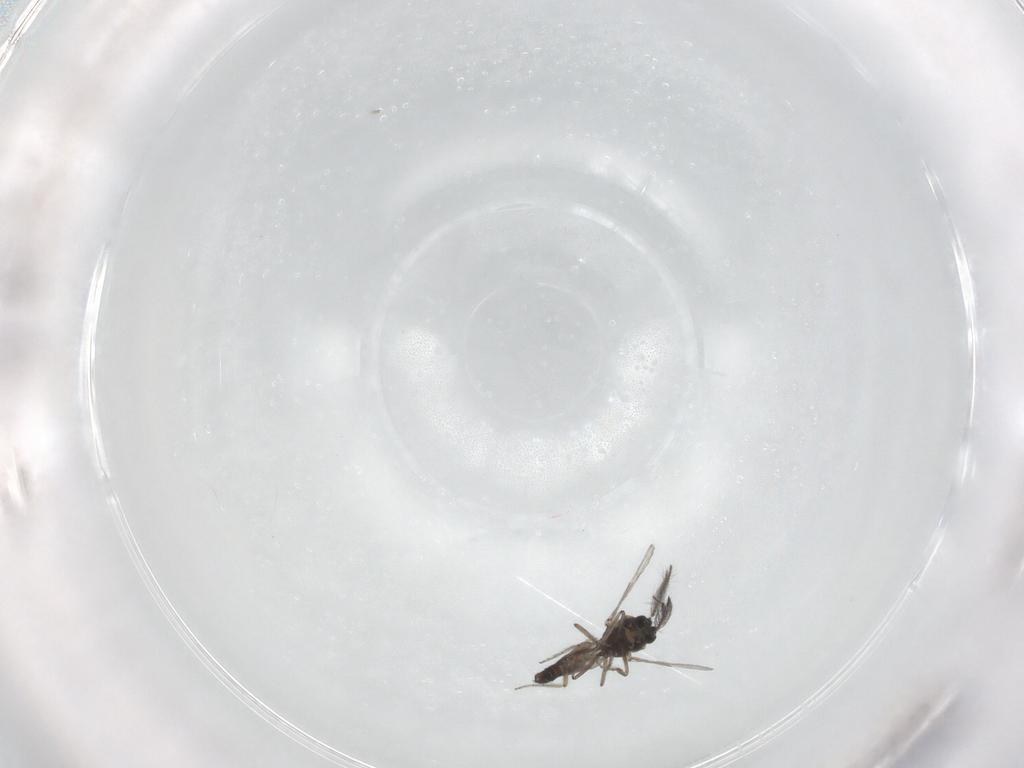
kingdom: Animalia
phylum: Arthropoda
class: Insecta
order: Diptera
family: Ceratopogonidae
